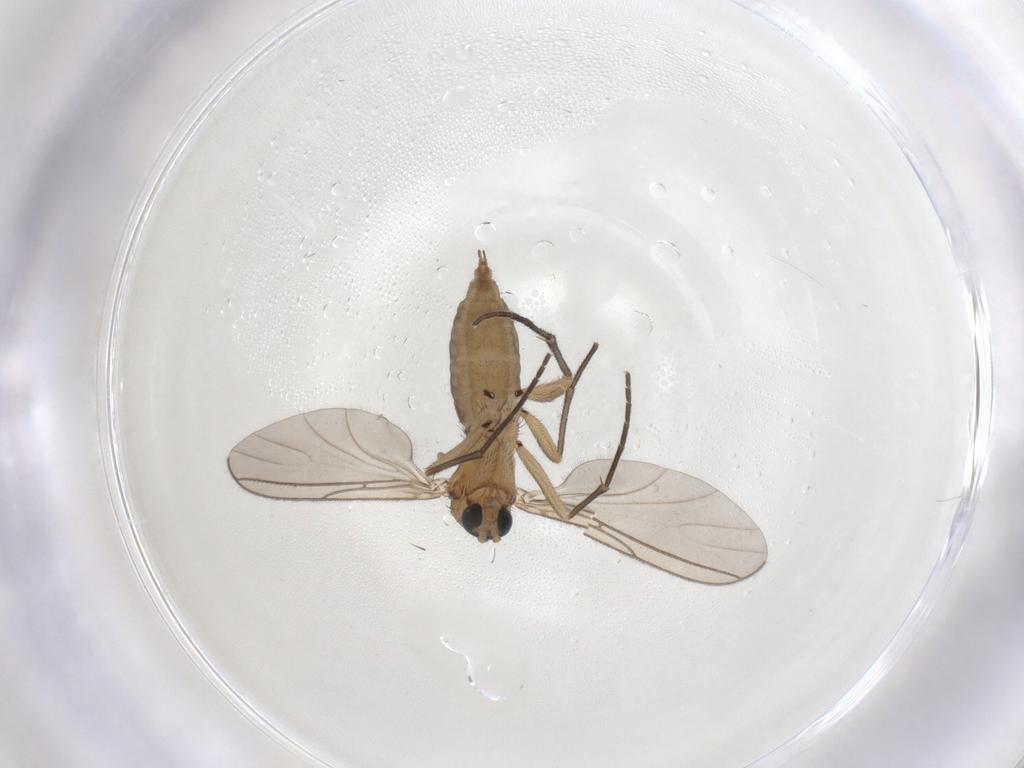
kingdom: Animalia
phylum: Arthropoda
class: Insecta
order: Diptera
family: Sciaridae
